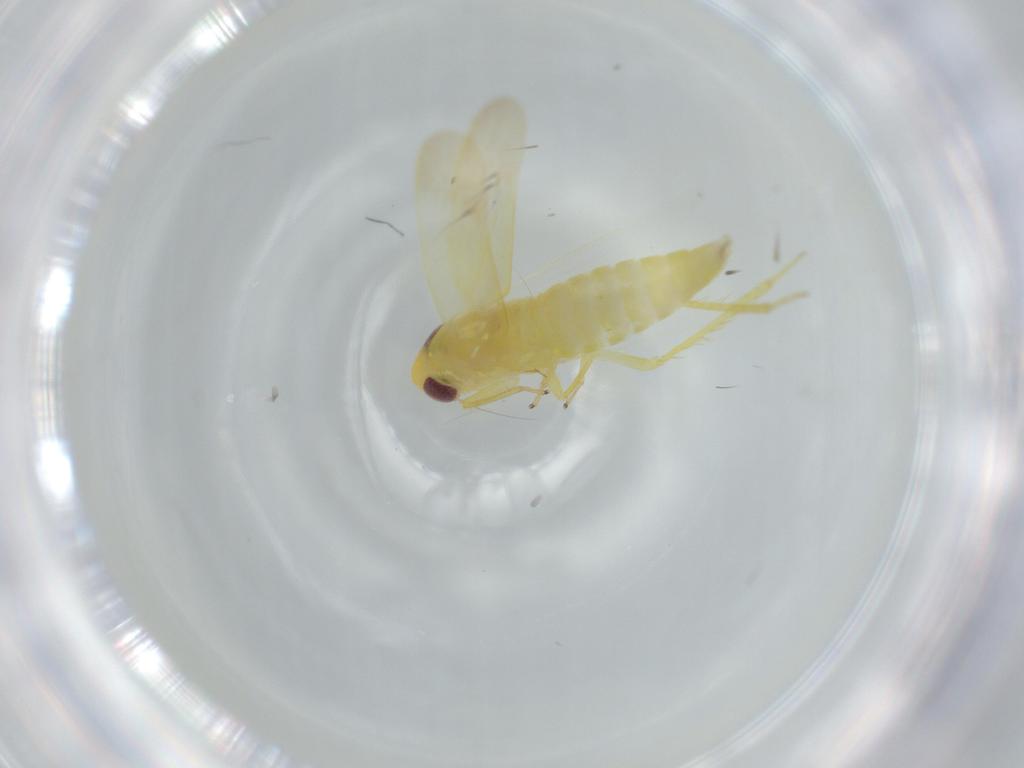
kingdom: Animalia
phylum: Arthropoda
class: Insecta
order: Hemiptera
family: Cicadellidae
